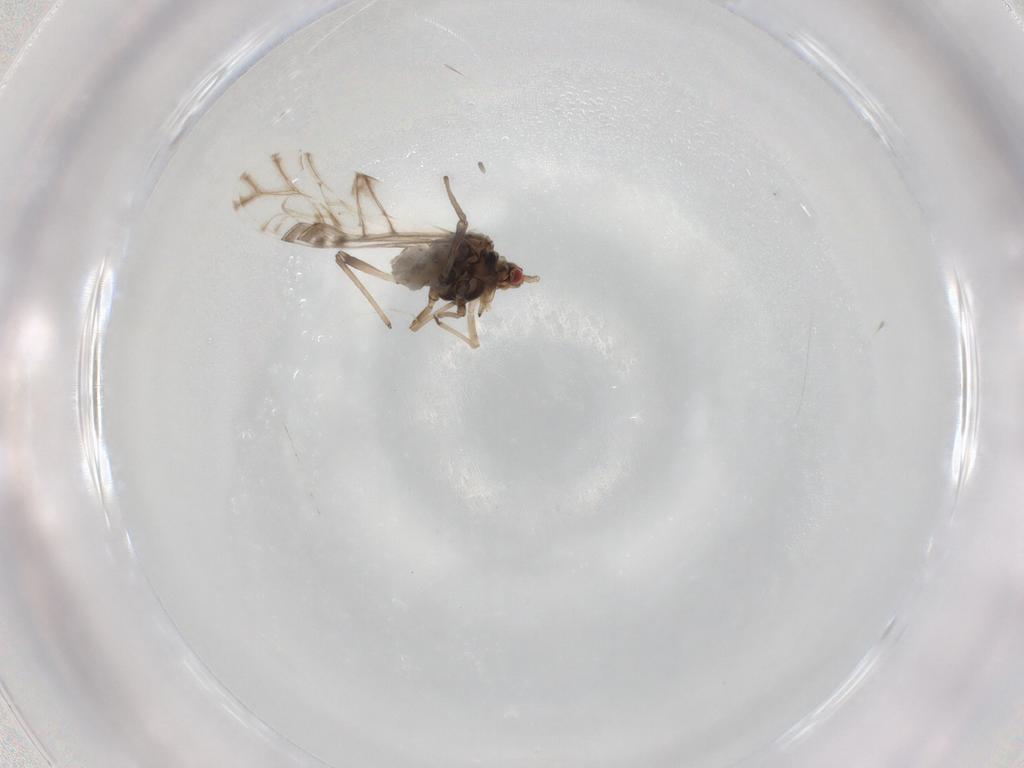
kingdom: Animalia
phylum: Arthropoda
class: Insecta
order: Hemiptera
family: Aphididae
